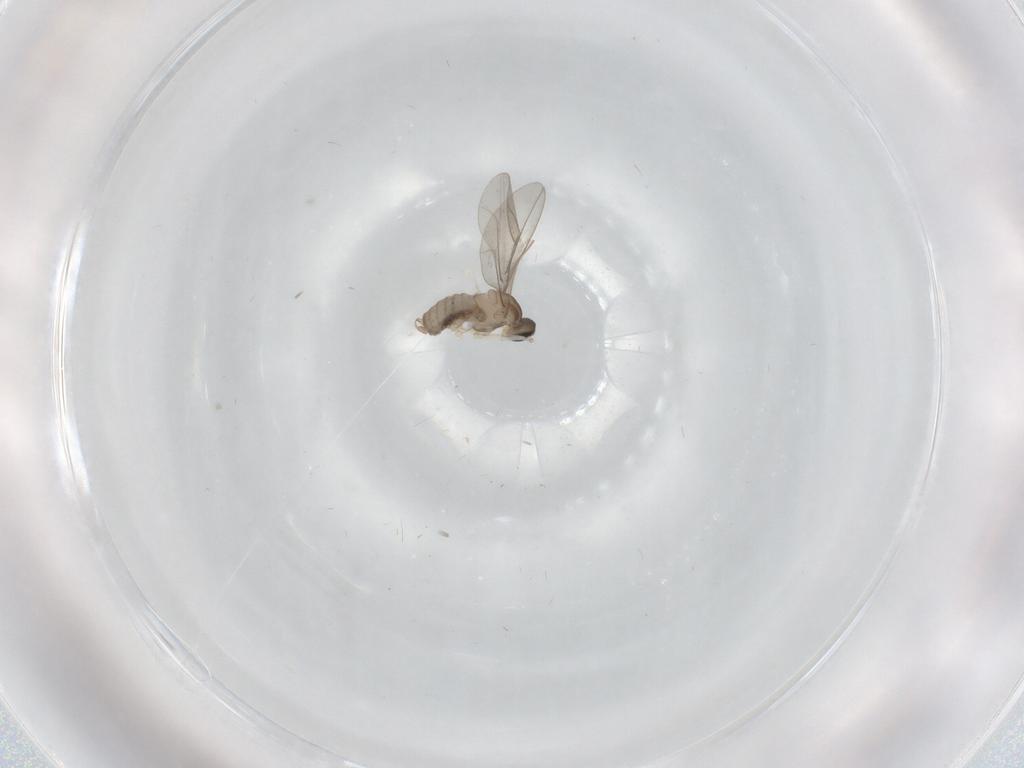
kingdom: Animalia
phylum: Arthropoda
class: Insecta
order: Diptera
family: Cecidomyiidae
